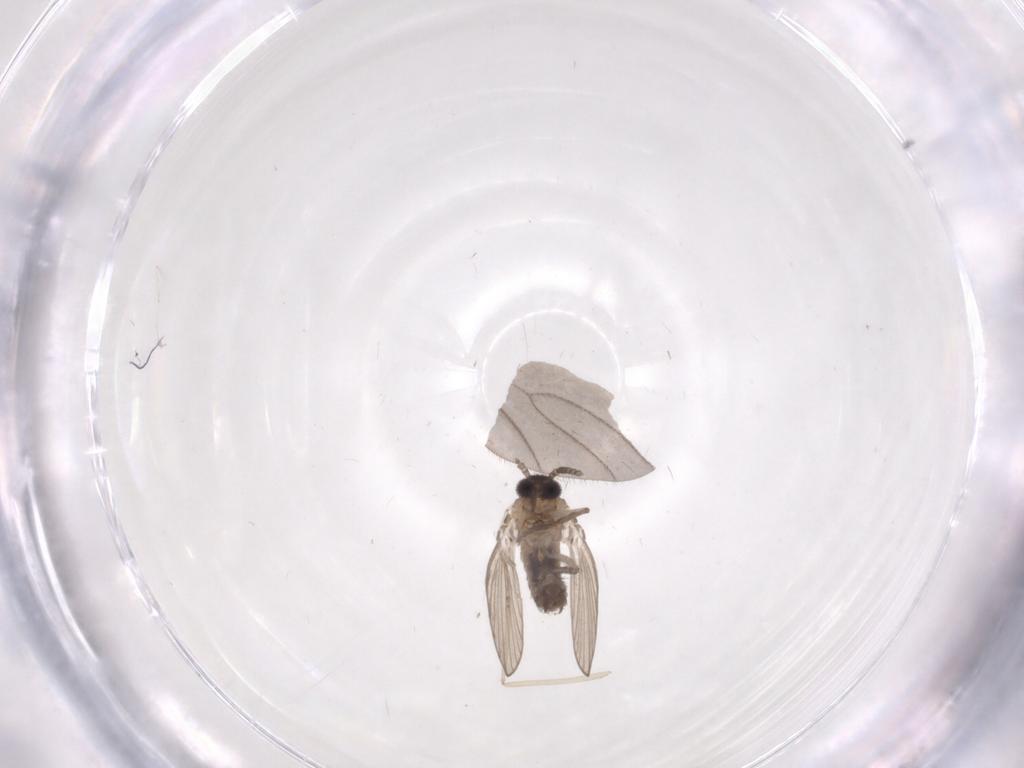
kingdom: Animalia
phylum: Arthropoda
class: Insecta
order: Diptera
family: Psychodidae
